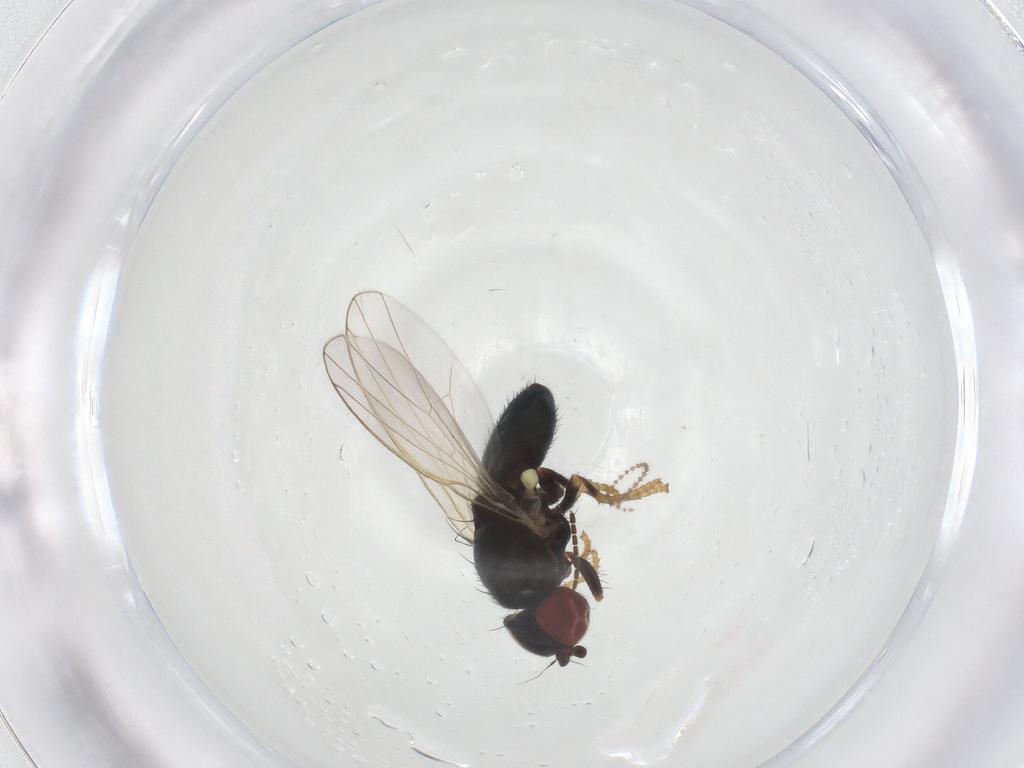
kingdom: Animalia
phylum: Arthropoda
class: Insecta
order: Diptera
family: Chamaemyiidae
